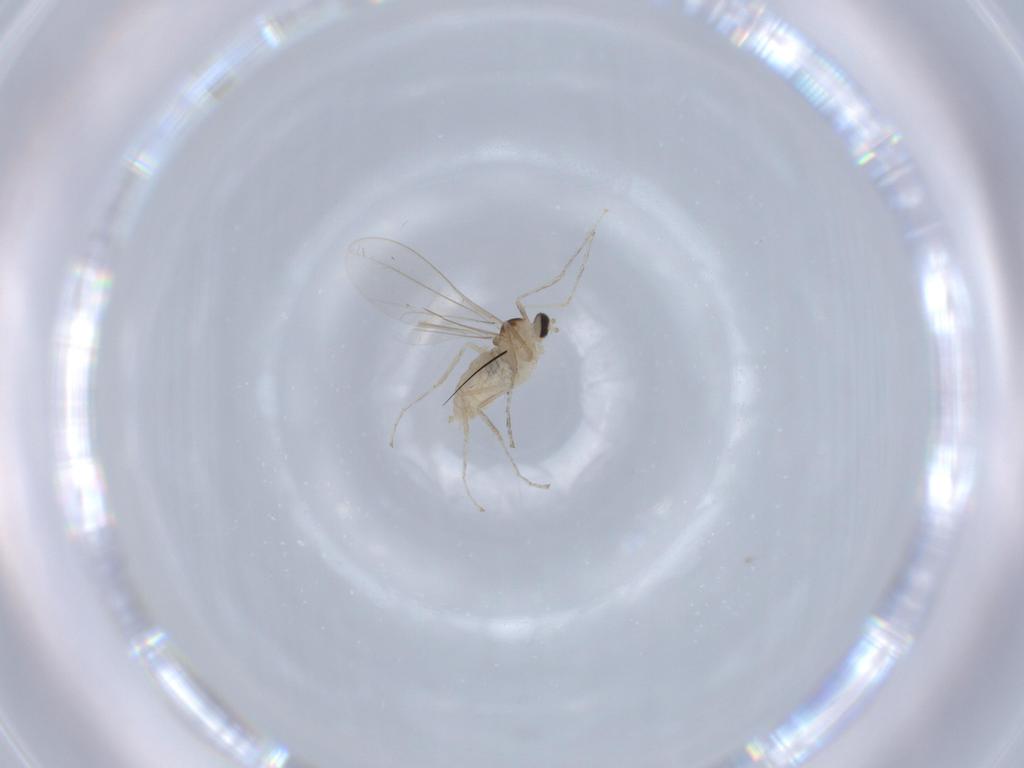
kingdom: Animalia
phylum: Arthropoda
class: Insecta
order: Diptera
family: Cecidomyiidae
